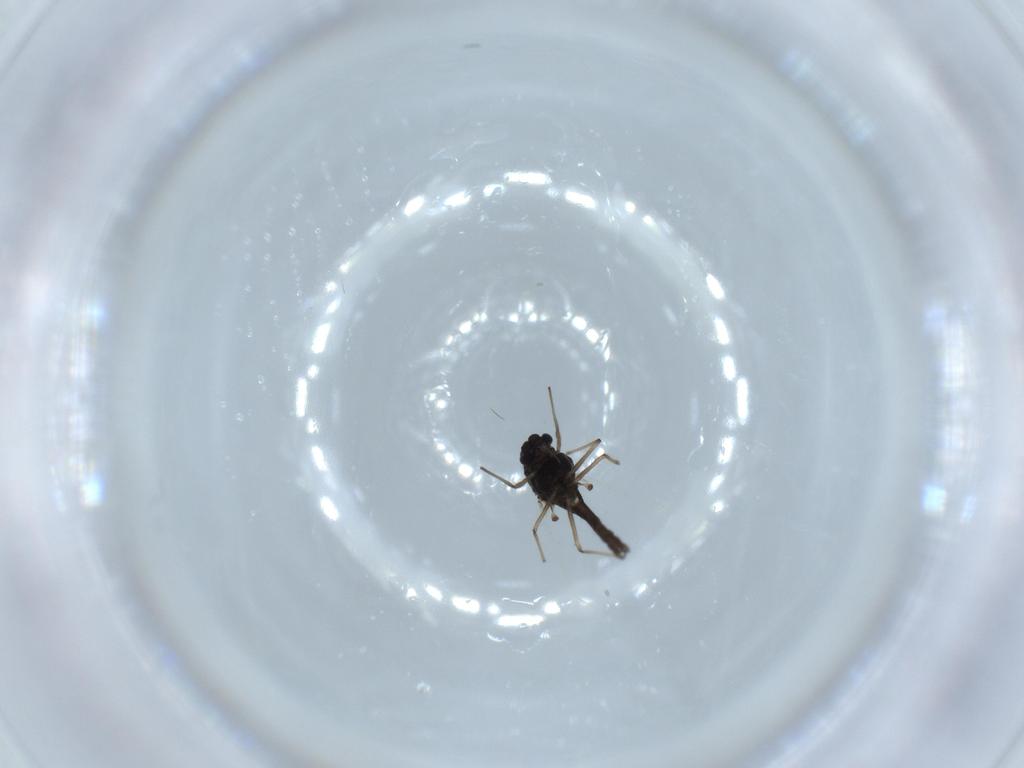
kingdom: Animalia
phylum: Arthropoda
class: Insecta
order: Diptera
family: Chironomidae
